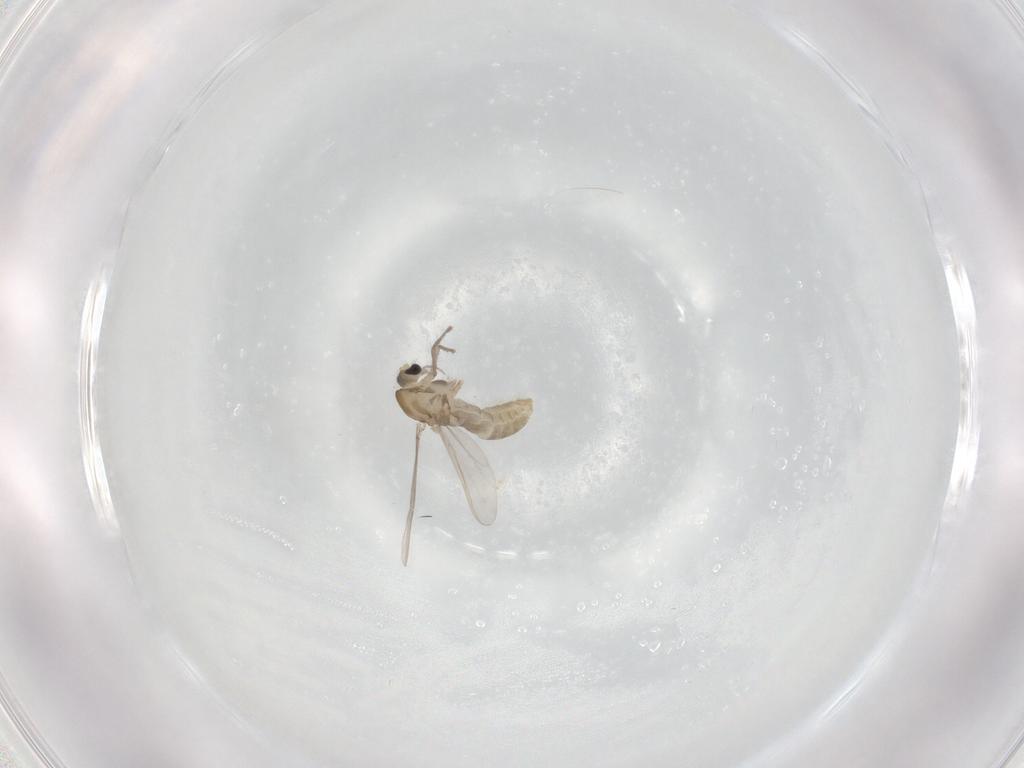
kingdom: Animalia
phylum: Arthropoda
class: Insecta
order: Diptera
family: Chironomidae
